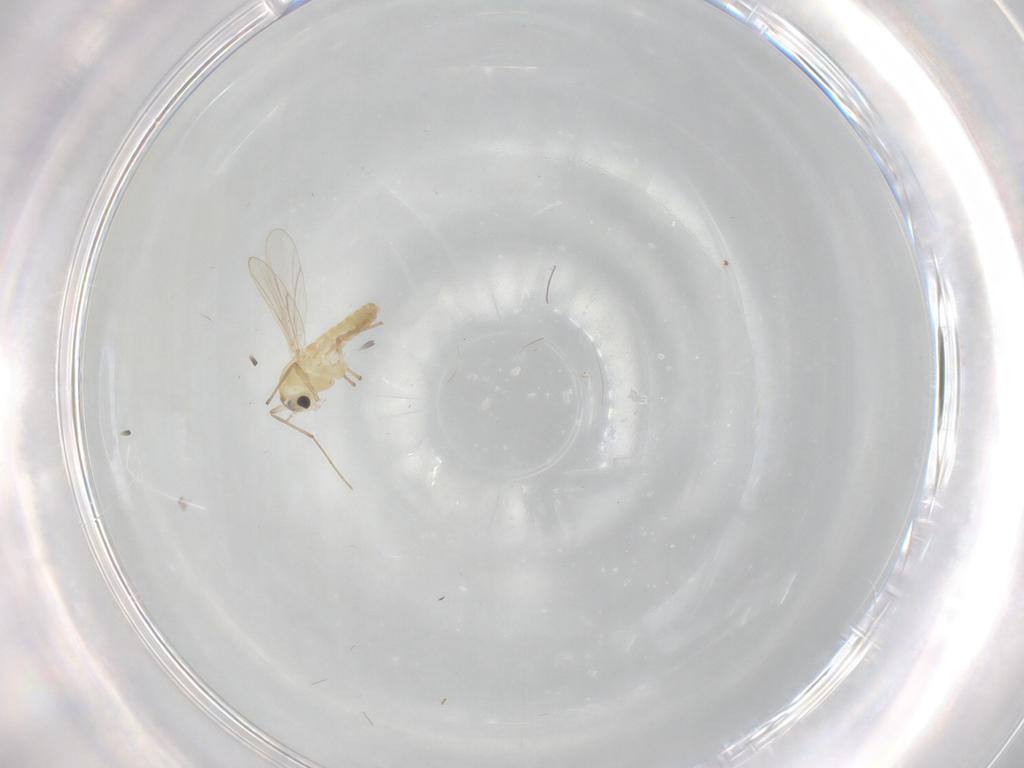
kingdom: Animalia
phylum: Arthropoda
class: Insecta
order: Diptera
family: Chironomidae
